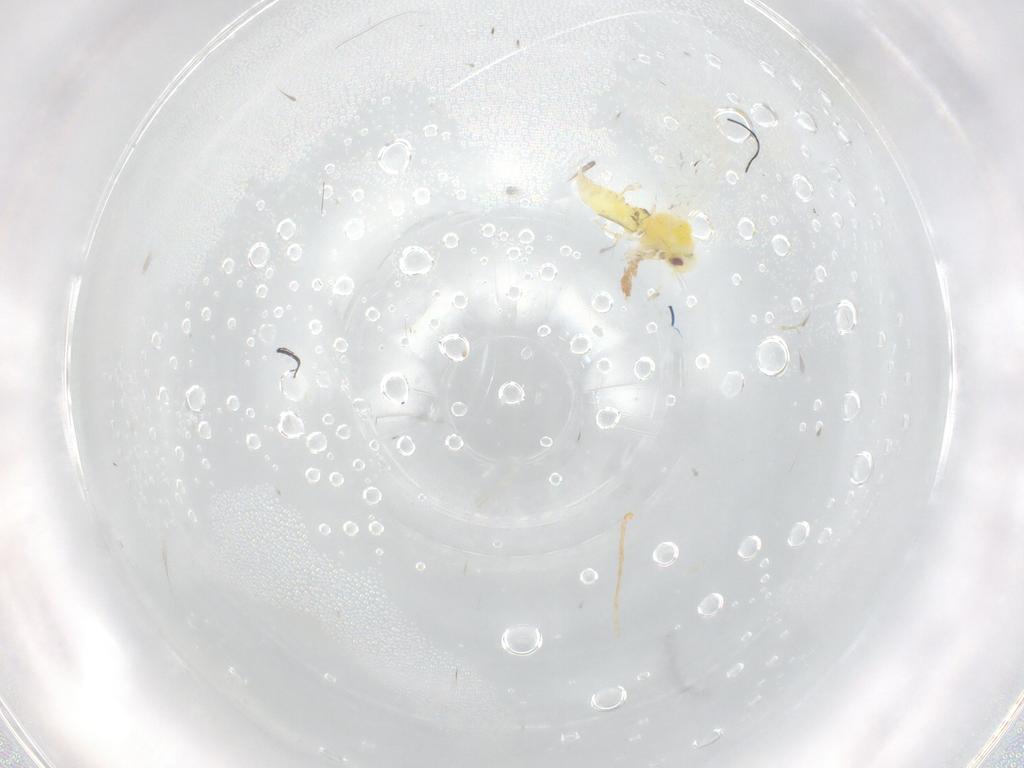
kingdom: Animalia
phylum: Arthropoda
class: Insecta
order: Hemiptera
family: Aleyrodidae
